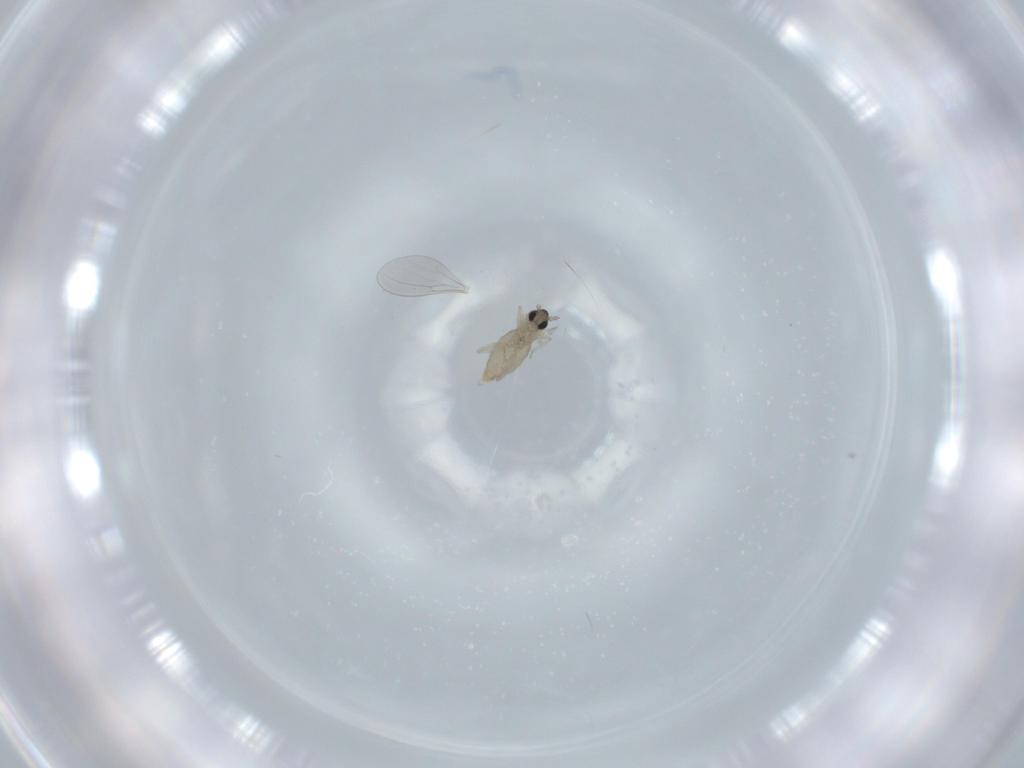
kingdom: Animalia
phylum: Arthropoda
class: Insecta
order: Diptera
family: Cecidomyiidae
